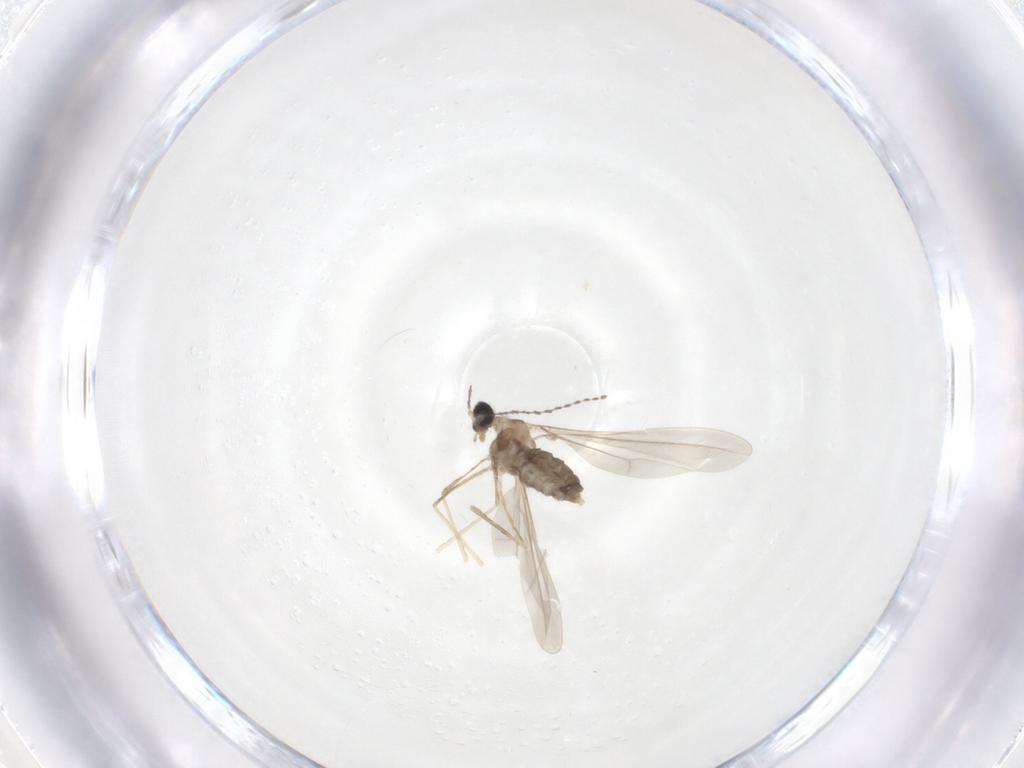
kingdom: Animalia
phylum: Arthropoda
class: Insecta
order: Diptera
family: Cecidomyiidae
